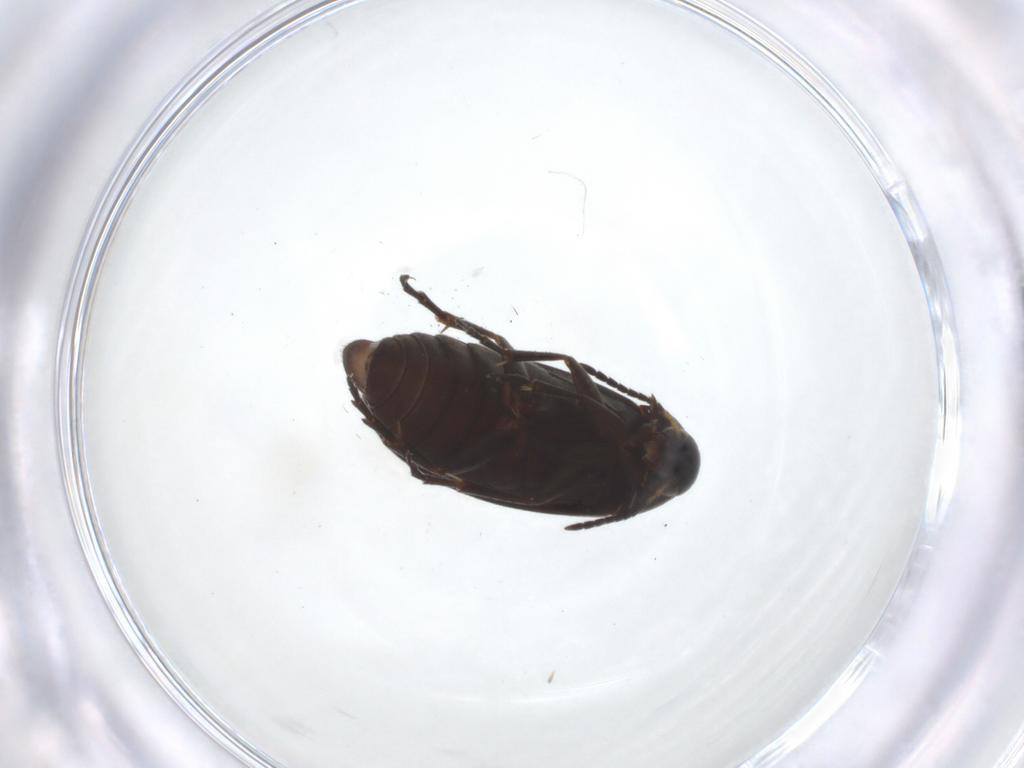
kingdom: Animalia
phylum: Arthropoda
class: Insecta
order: Coleoptera
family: Scraptiidae
